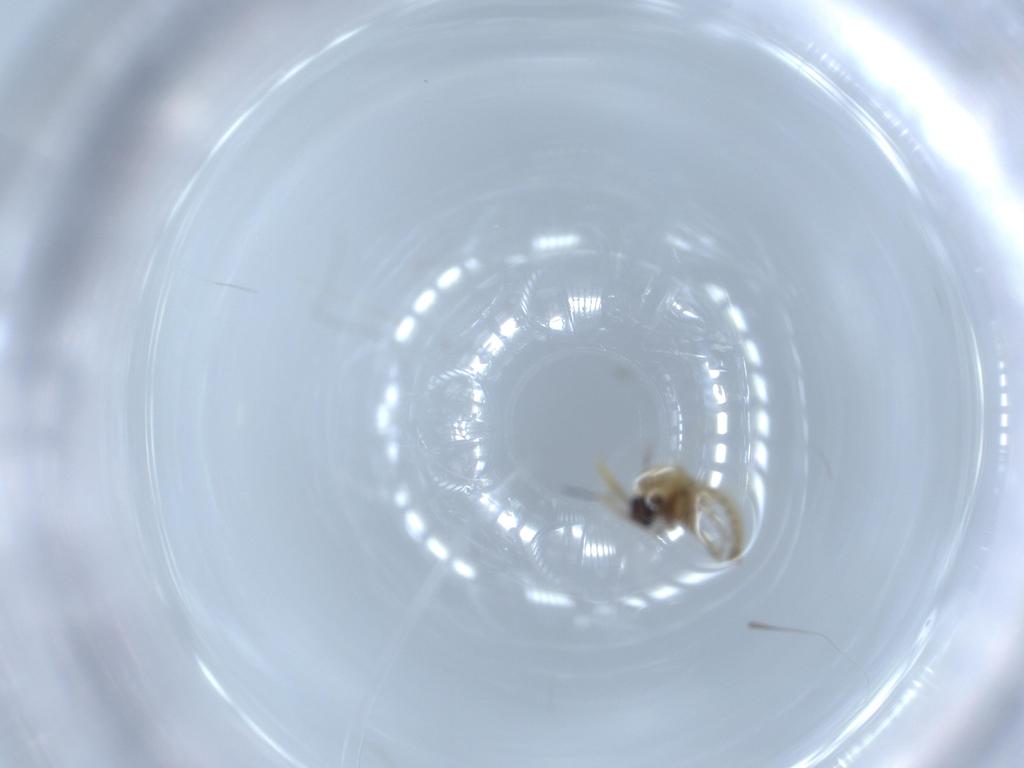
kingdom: Animalia
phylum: Arthropoda
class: Insecta
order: Diptera
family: Ceratopogonidae
